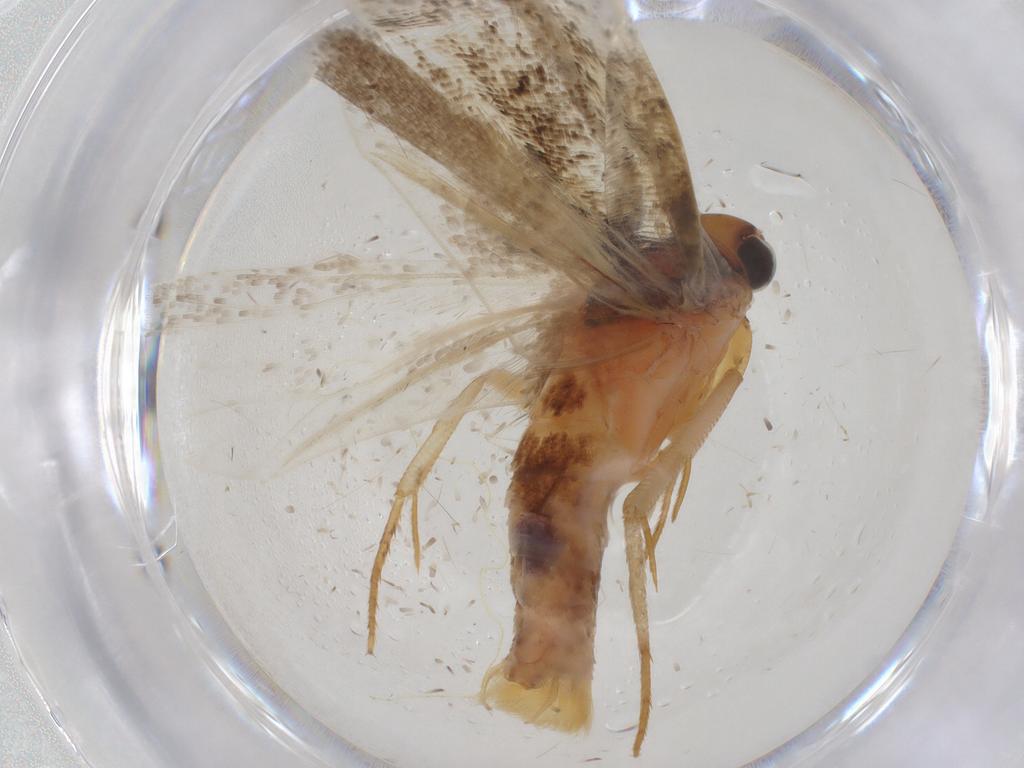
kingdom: Animalia
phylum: Arthropoda
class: Insecta
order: Lepidoptera
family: Gelechiidae
